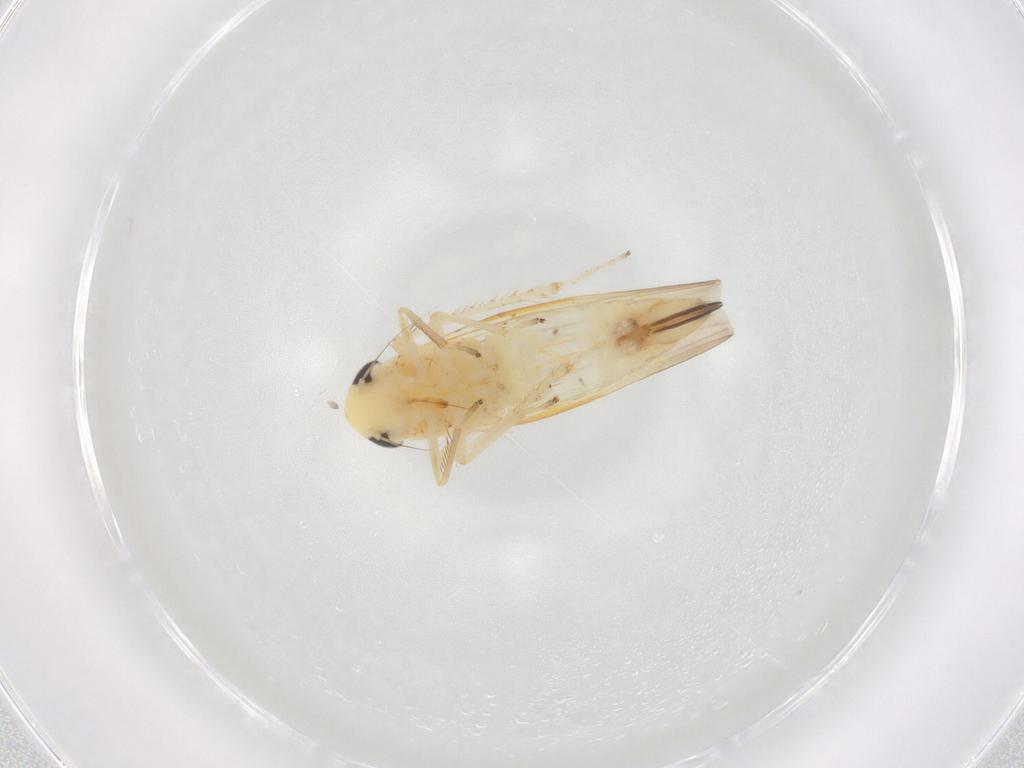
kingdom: Animalia
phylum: Arthropoda
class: Insecta
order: Hemiptera
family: Cicadellidae
